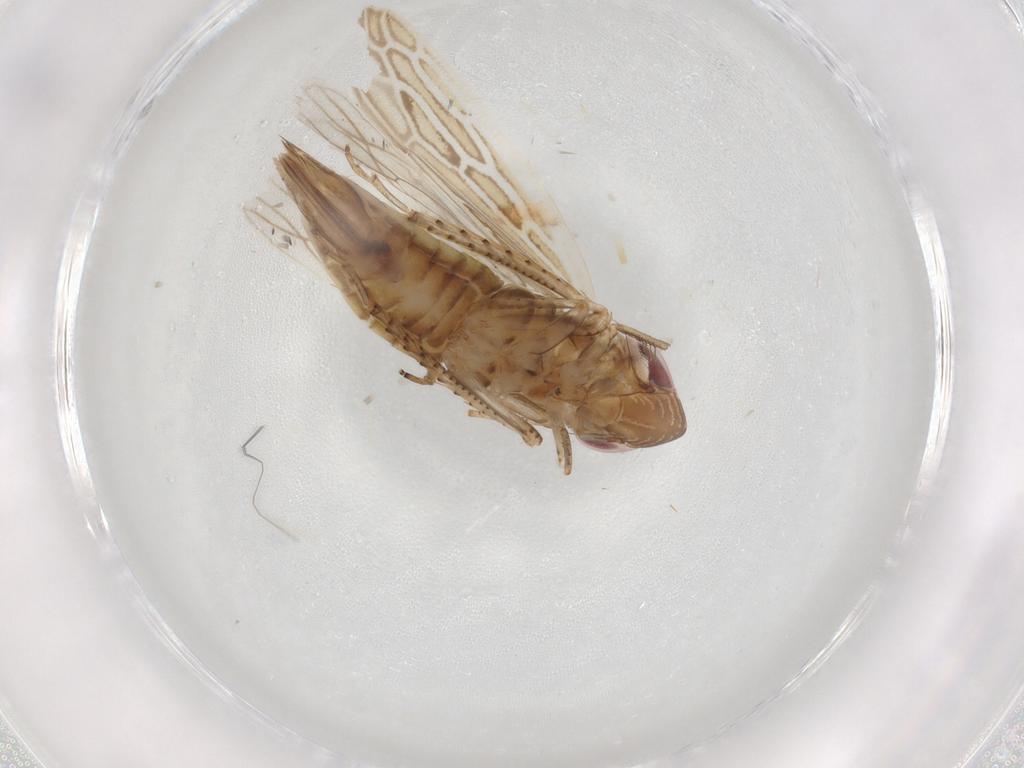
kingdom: Animalia
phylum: Arthropoda
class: Insecta
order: Hemiptera
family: Cicadellidae
